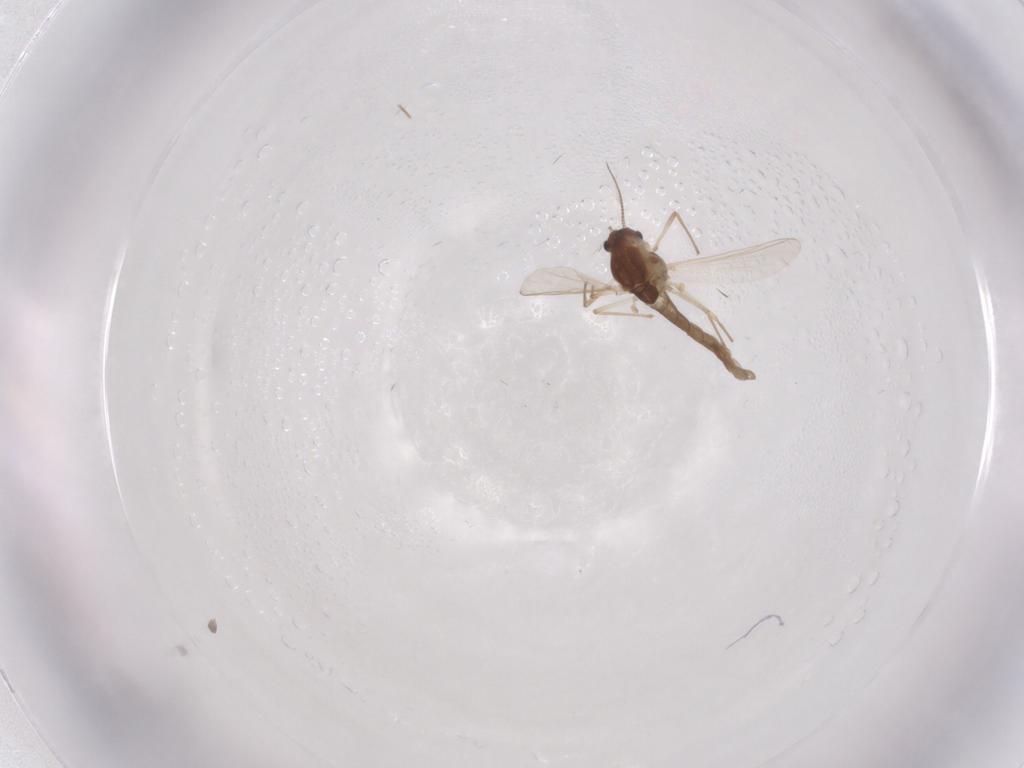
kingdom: Animalia
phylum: Arthropoda
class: Insecta
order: Diptera
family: Chironomidae
